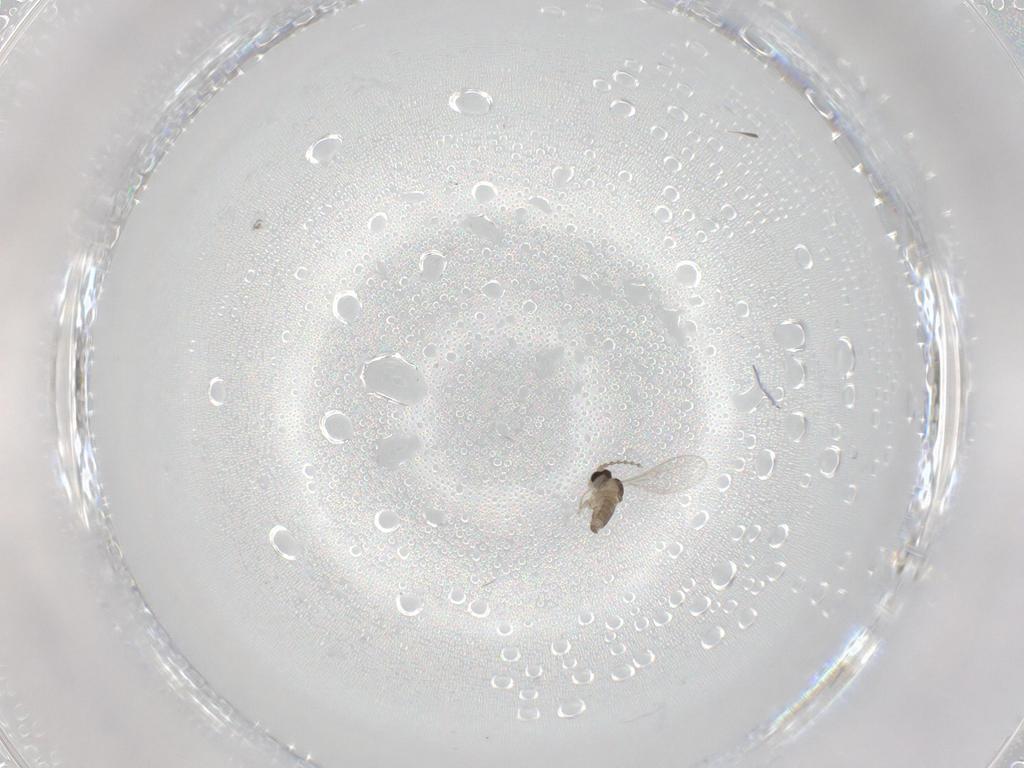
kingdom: Animalia
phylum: Arthropoda
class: Insecta
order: Diptera
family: Cecidomyiidae
